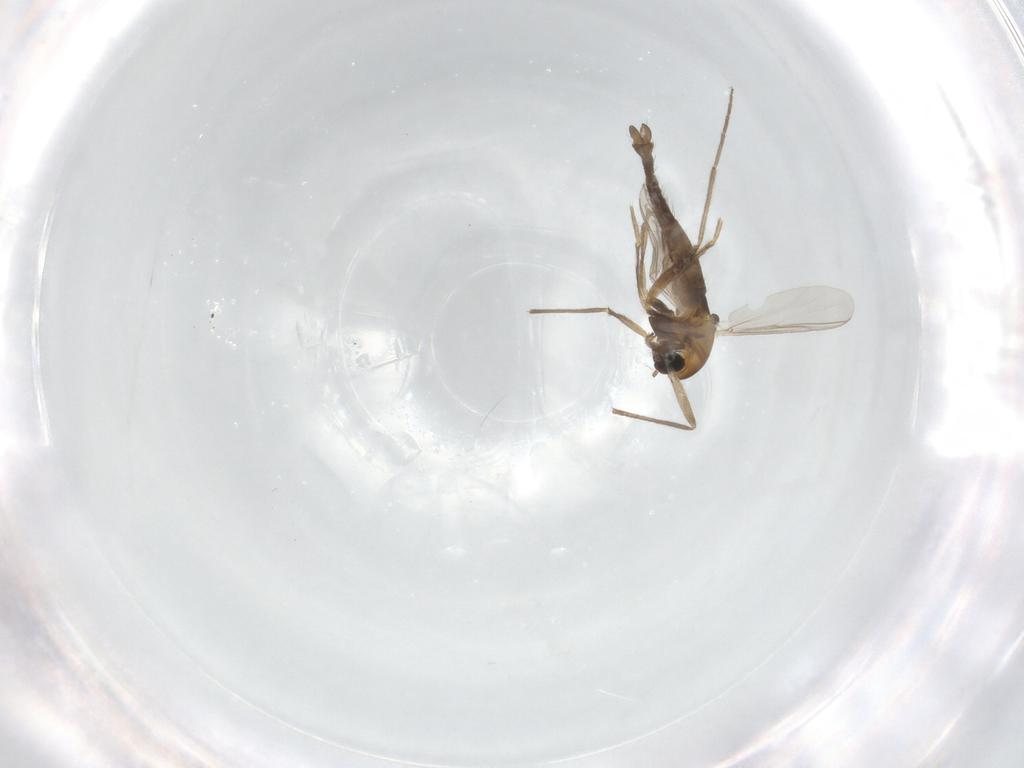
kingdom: Animalia
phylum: Arthropoda
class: Insecta
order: Diptera
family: Chironomidae
